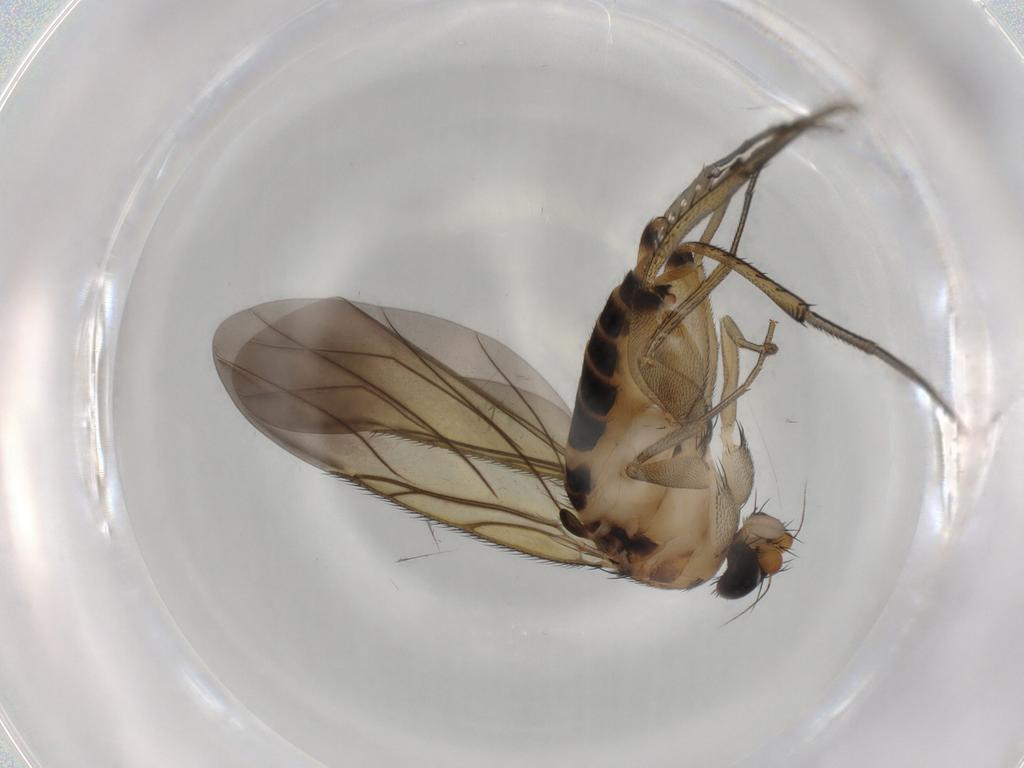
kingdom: Animalia
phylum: Arthropoda
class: Insecta
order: Diptera
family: Phoridae
